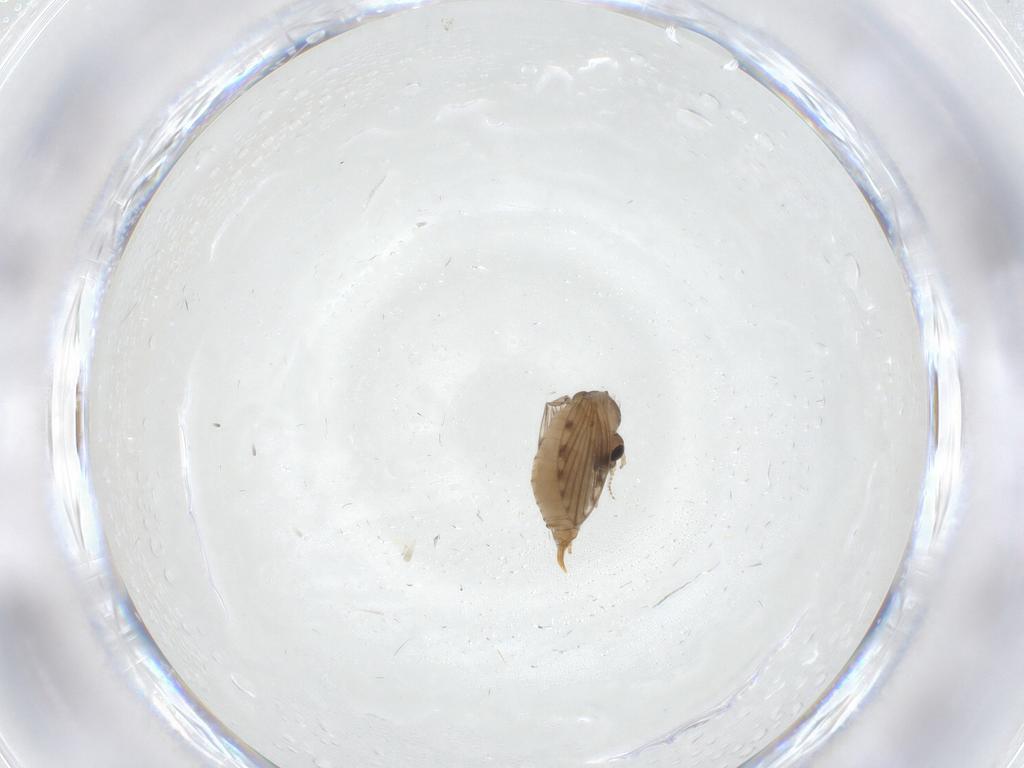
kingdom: Animalia
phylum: Arthropoda
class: Insecta
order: Diptera
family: Psychodidae
